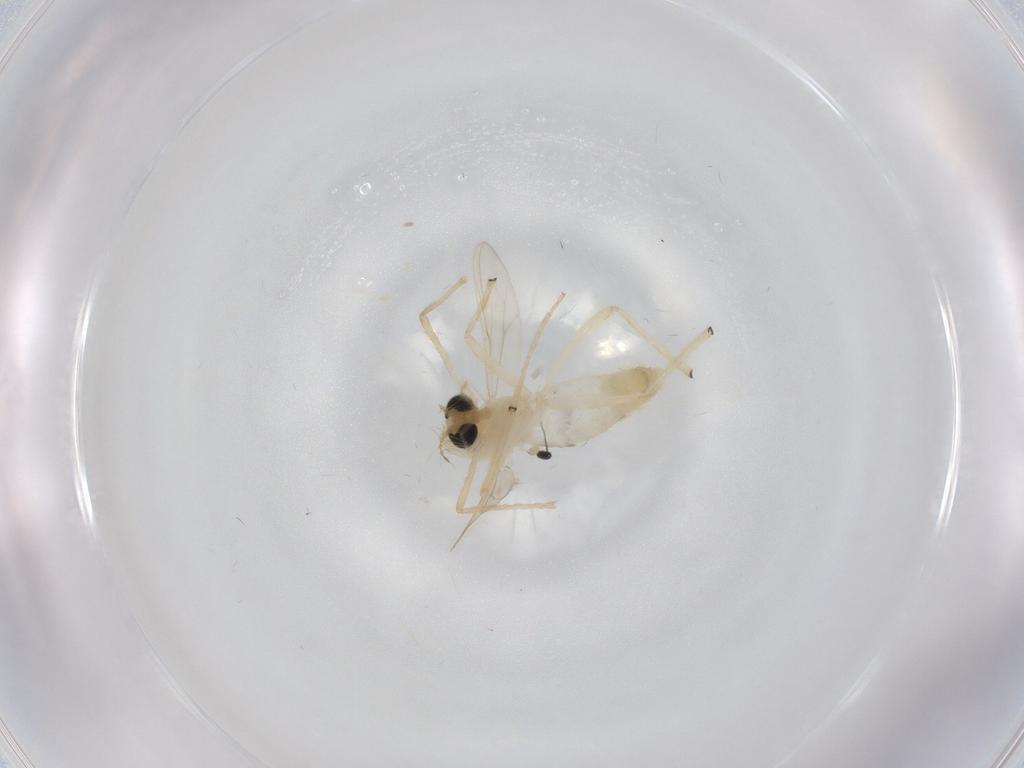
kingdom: Animalia
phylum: Arthropoda
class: Insecta
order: Diptera
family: Chironomidae
